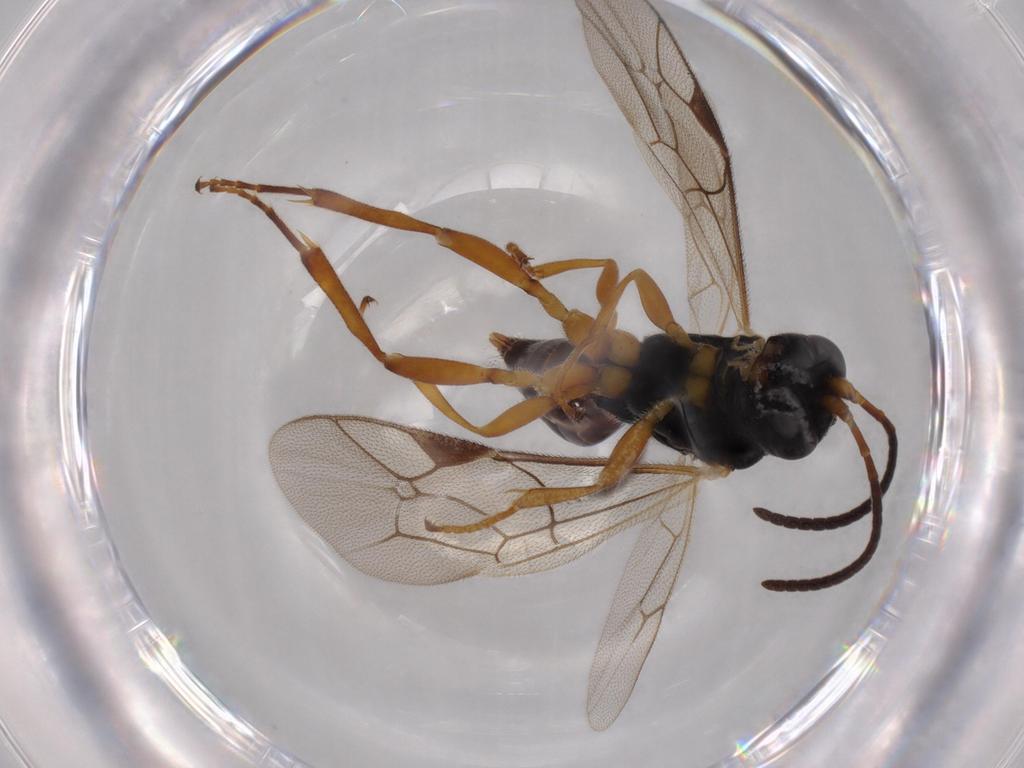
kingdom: Animalia
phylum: Arthropoda
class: Insecta
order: Hymenoptera
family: Ichneumonidae
